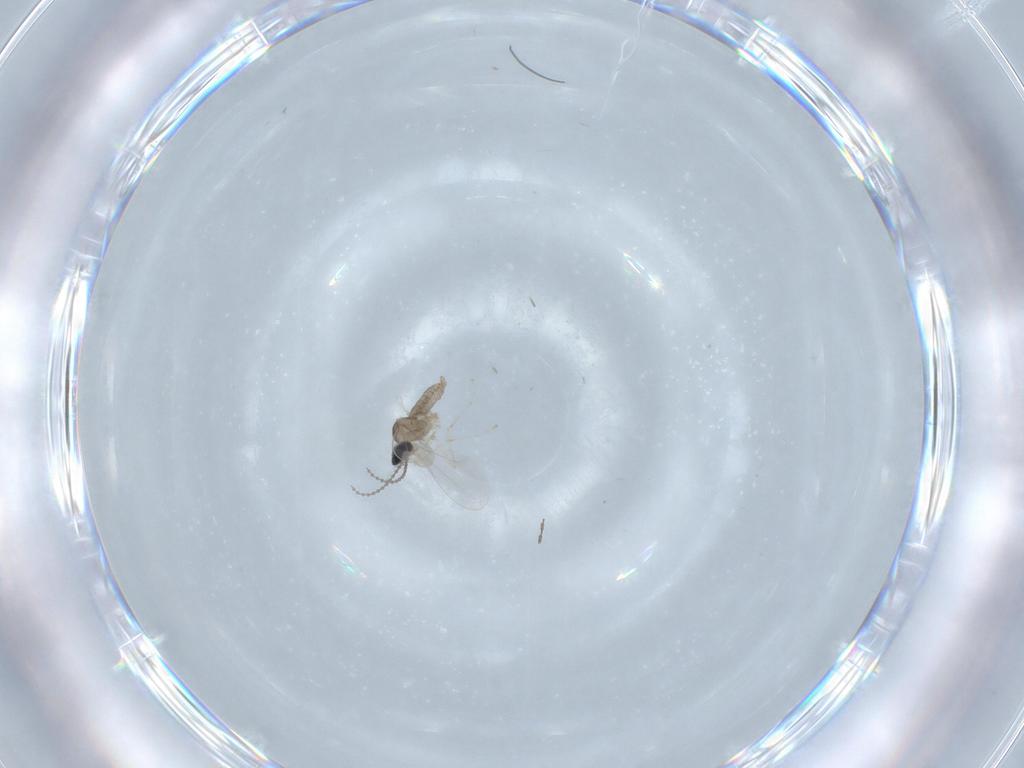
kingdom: Animalia
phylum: Arthropoda
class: Insecta
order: Diptera
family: Cecidomyiidae
